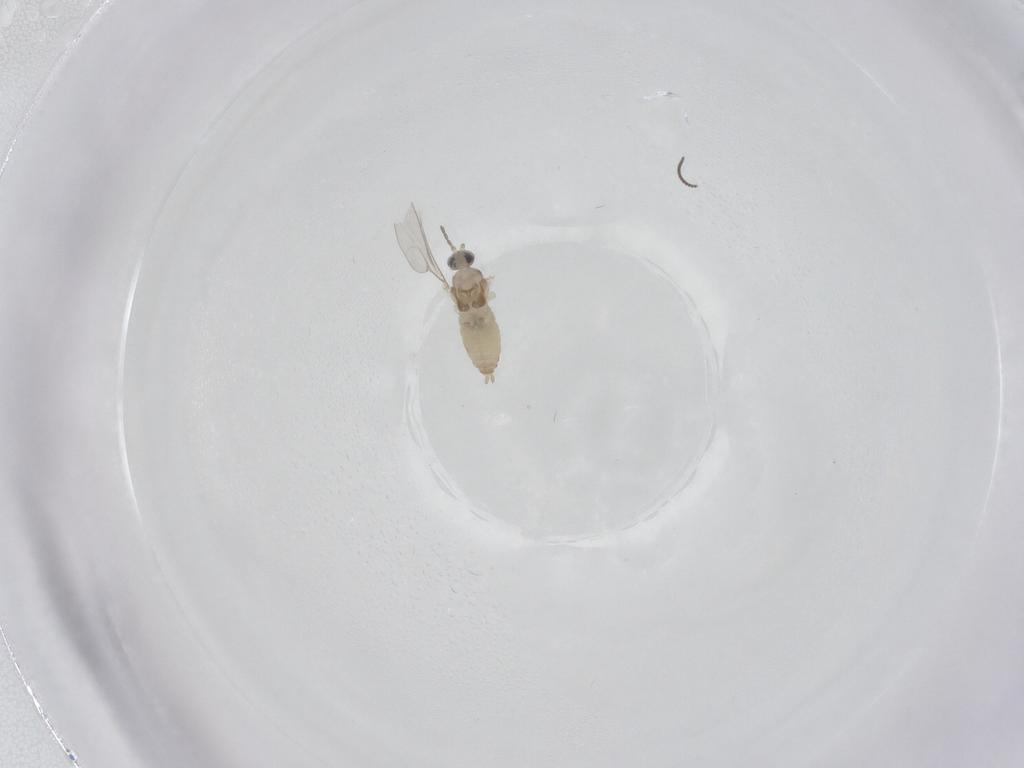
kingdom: Animalia
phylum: Arthropoda
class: Insecta
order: Diptera
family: Cecidomyiidae
